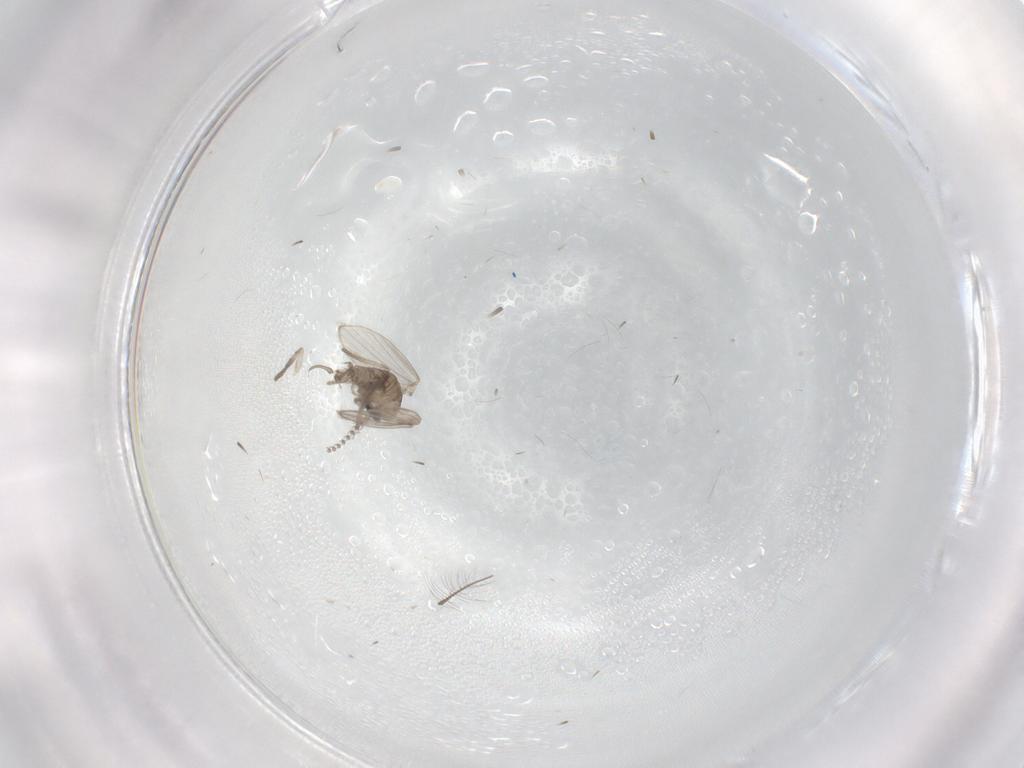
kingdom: Animalia
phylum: Arthropoda
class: Insecta
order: Diptera
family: Psychodidae
